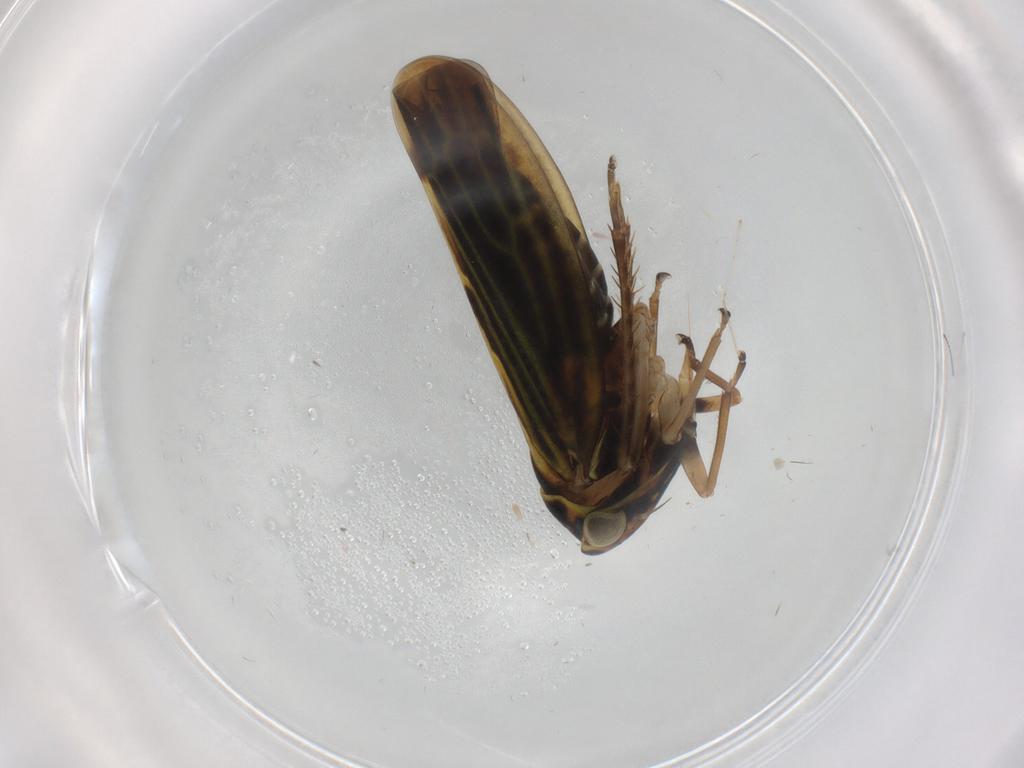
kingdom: Animalia
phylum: Arthropoda
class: Insecta
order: Hemiptera
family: Cicadellidae
